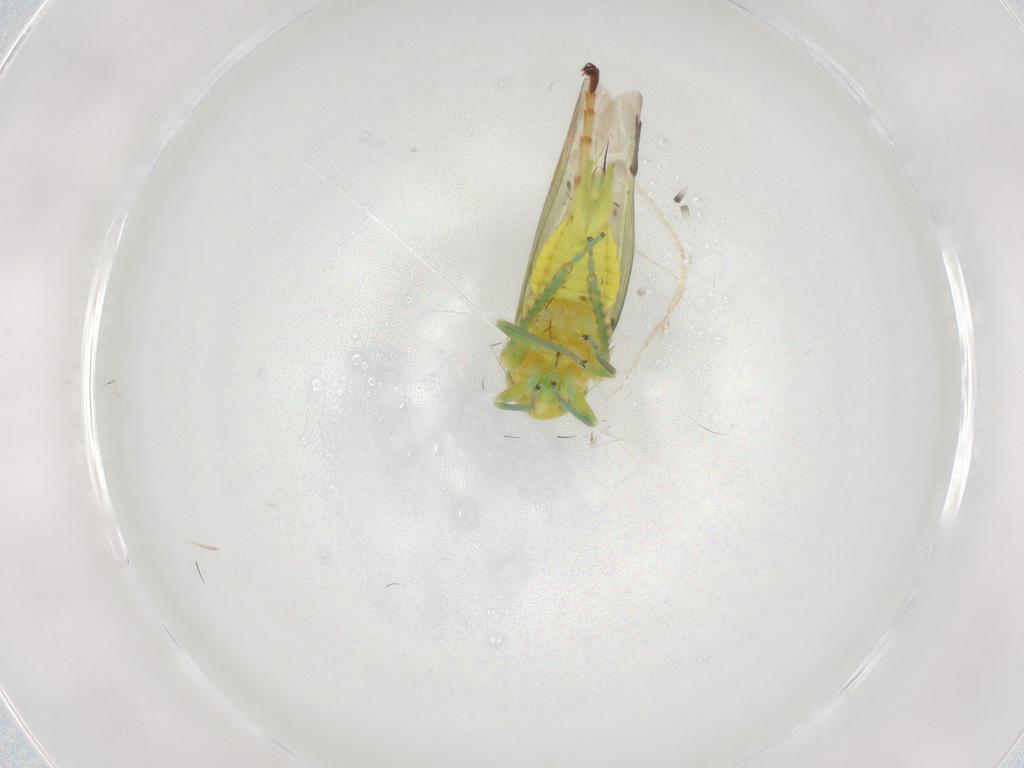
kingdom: Animalia
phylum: Arthropoda
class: Insecta
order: Hemiptera
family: Cicadellidae
